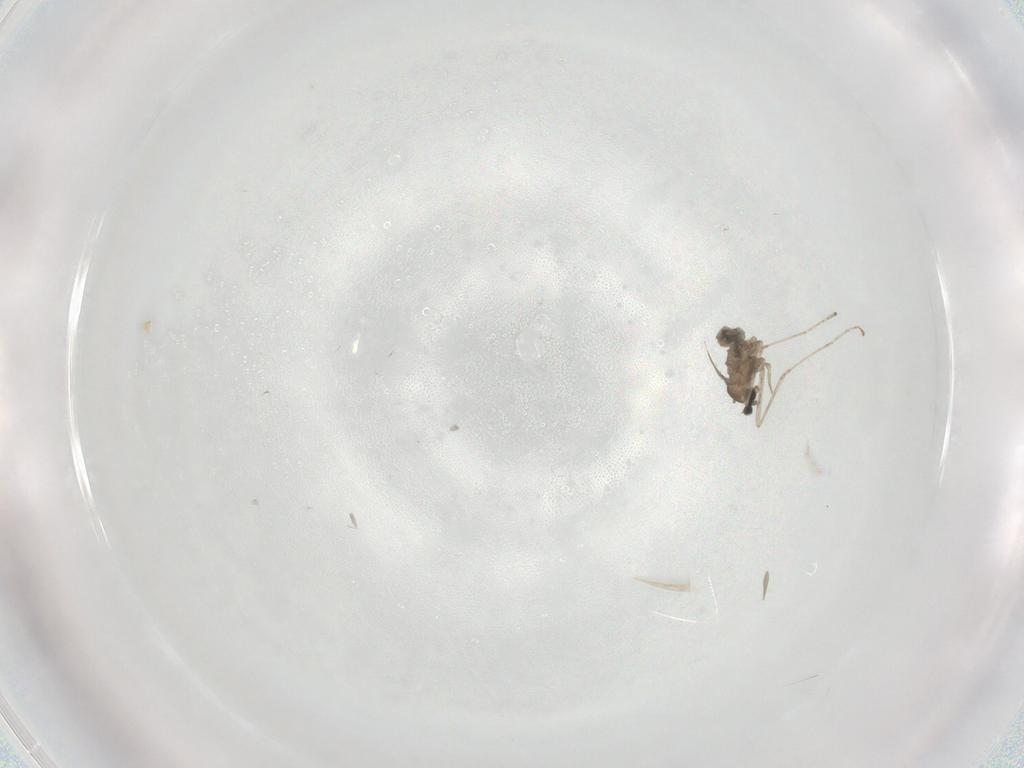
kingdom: Animalia
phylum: Arthropoda
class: Insecta
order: Diptera
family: Cecidomyiidae
